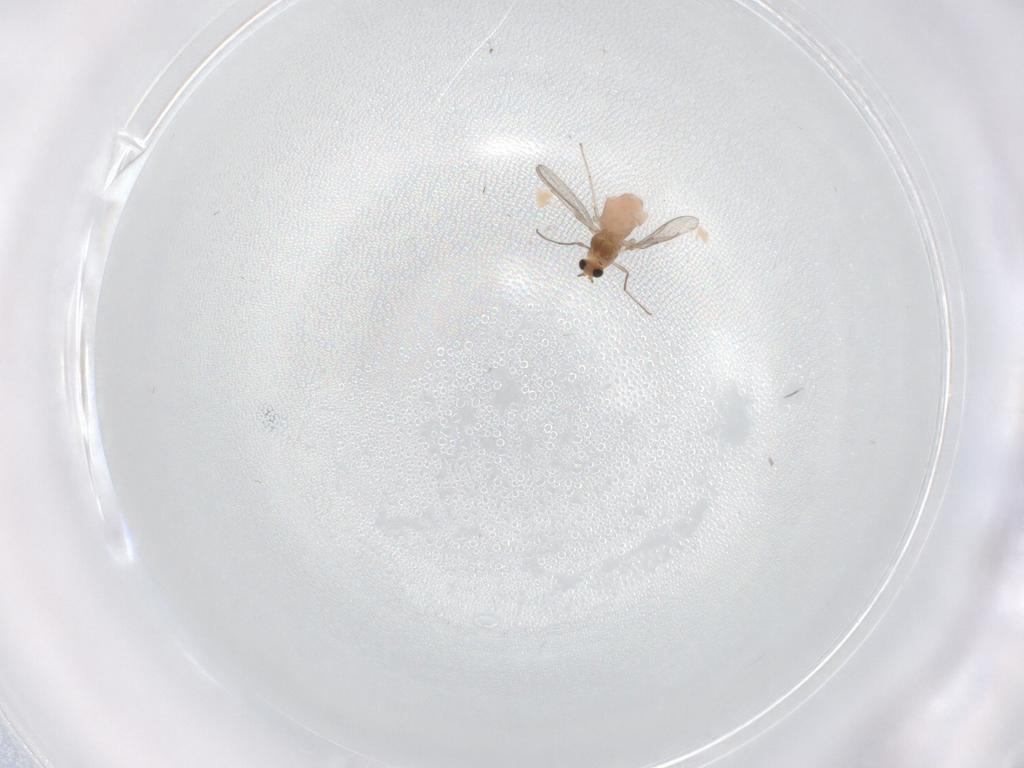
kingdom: Animalia
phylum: Arthropoda
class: Insecta
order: Diptera
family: Chironomidae
